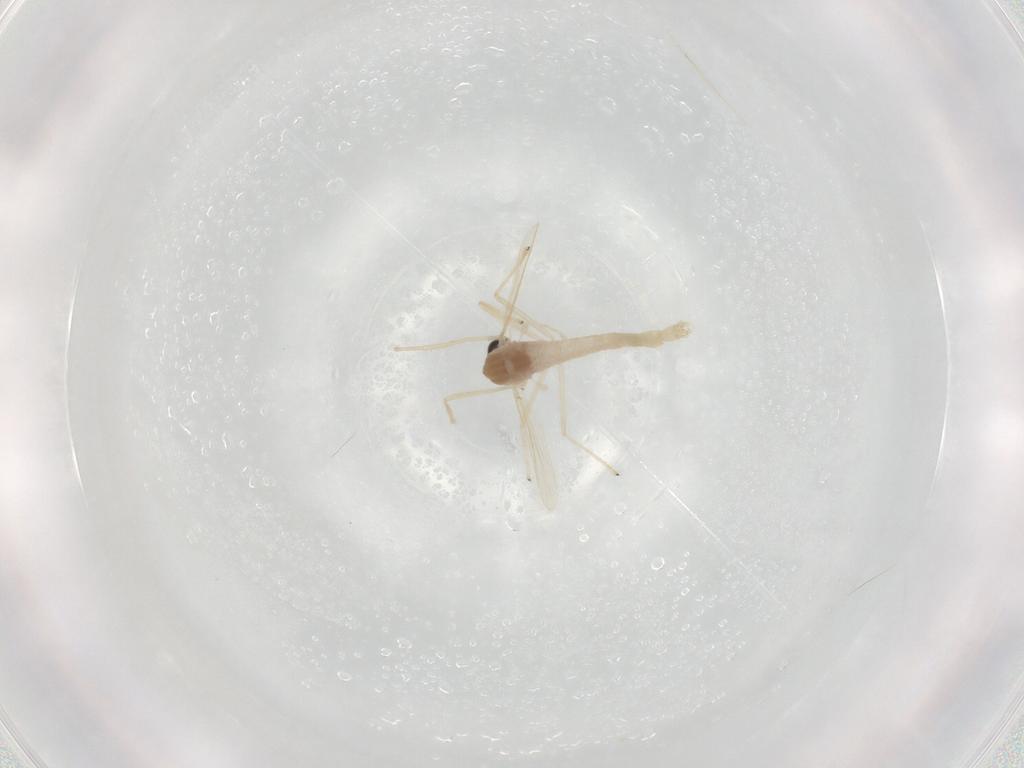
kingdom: Animalia
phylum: Arthropoda
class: Insecta
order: Diptera
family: Chironomidae
